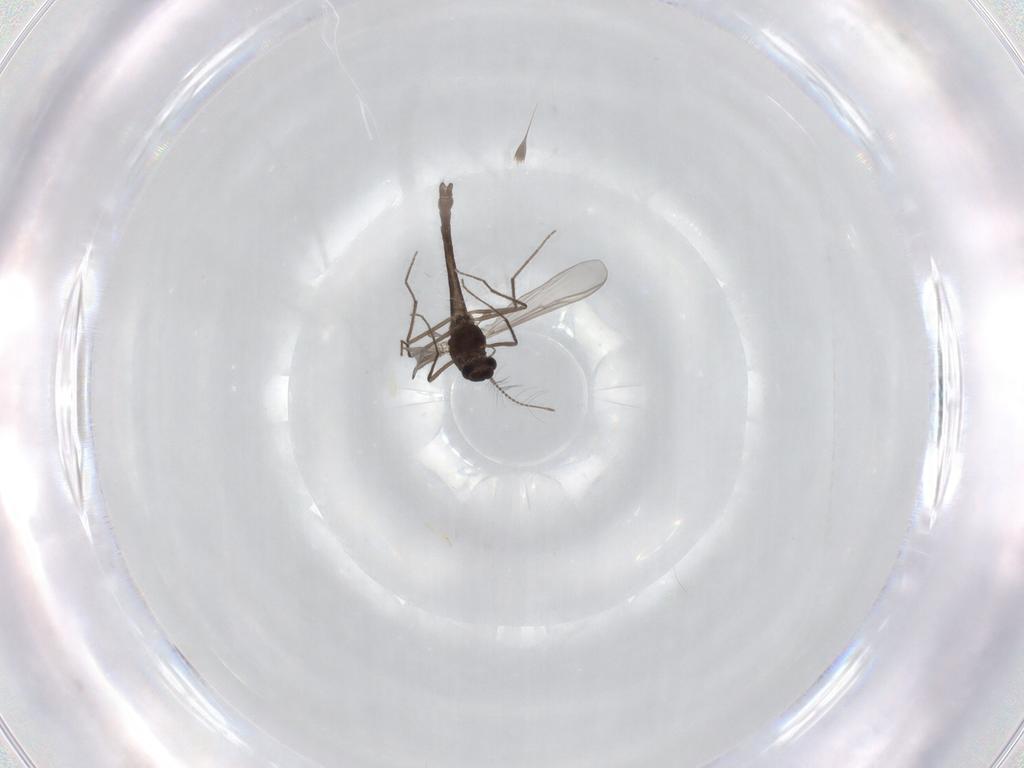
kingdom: Animalia
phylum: Arthropoda
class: Insecta
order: Diptera
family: Chironomidae
